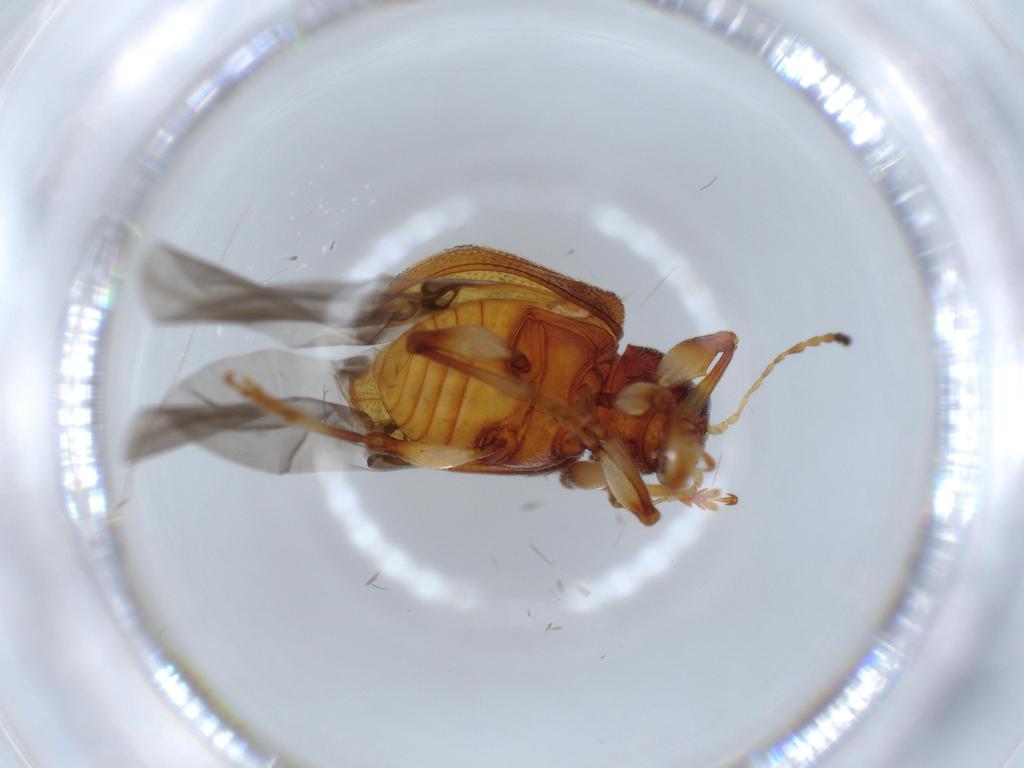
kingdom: Animalia
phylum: Arthropoda
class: Insecta
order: Coleoptera
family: Chrysomelidae
